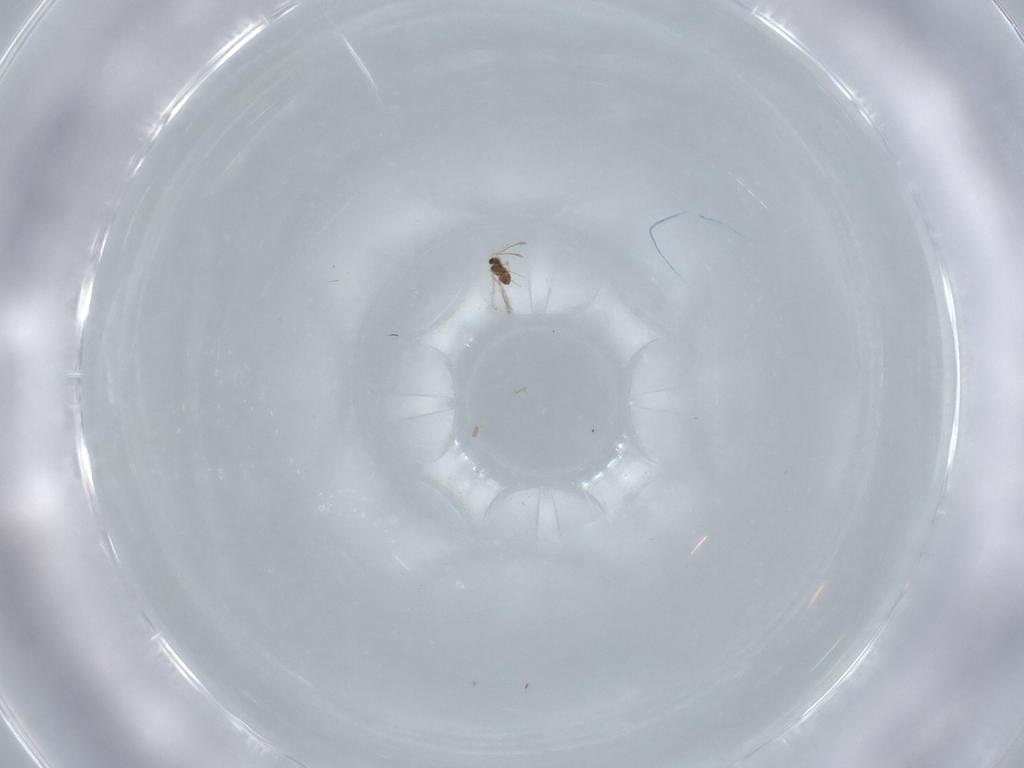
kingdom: Animalia
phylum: Arthropoda
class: Insecta
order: Hymenoptera
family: Mymaridae
